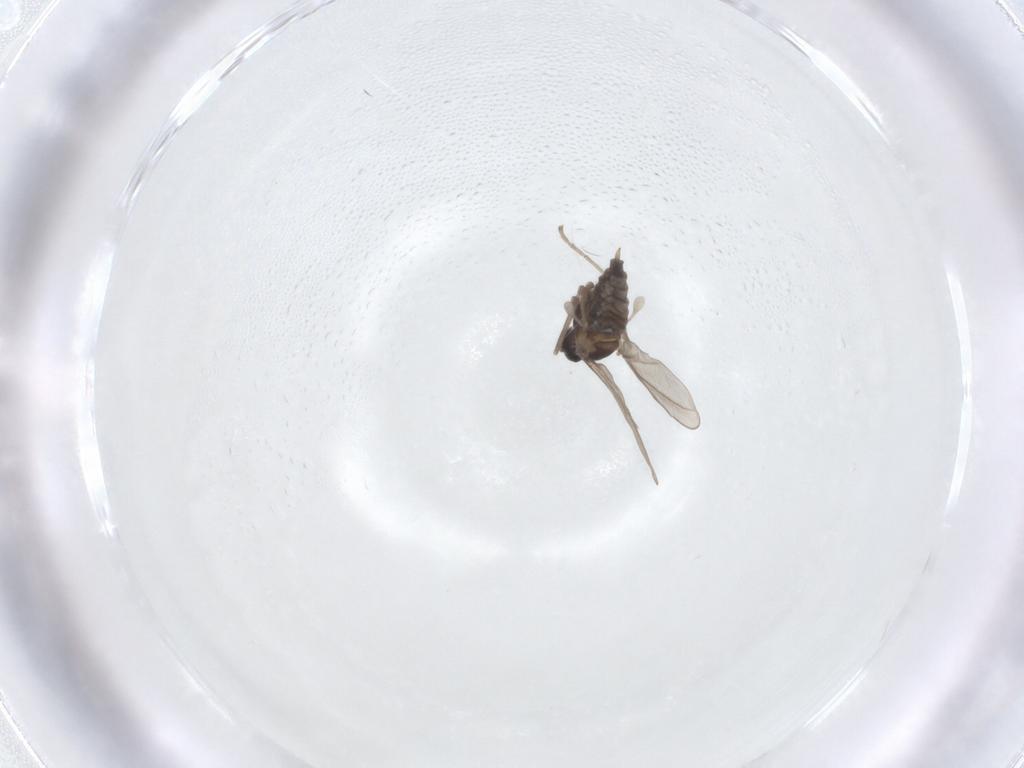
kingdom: Animalia
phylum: Arthropoda
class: Insecta
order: Diptera
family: Cecidomyiidae
